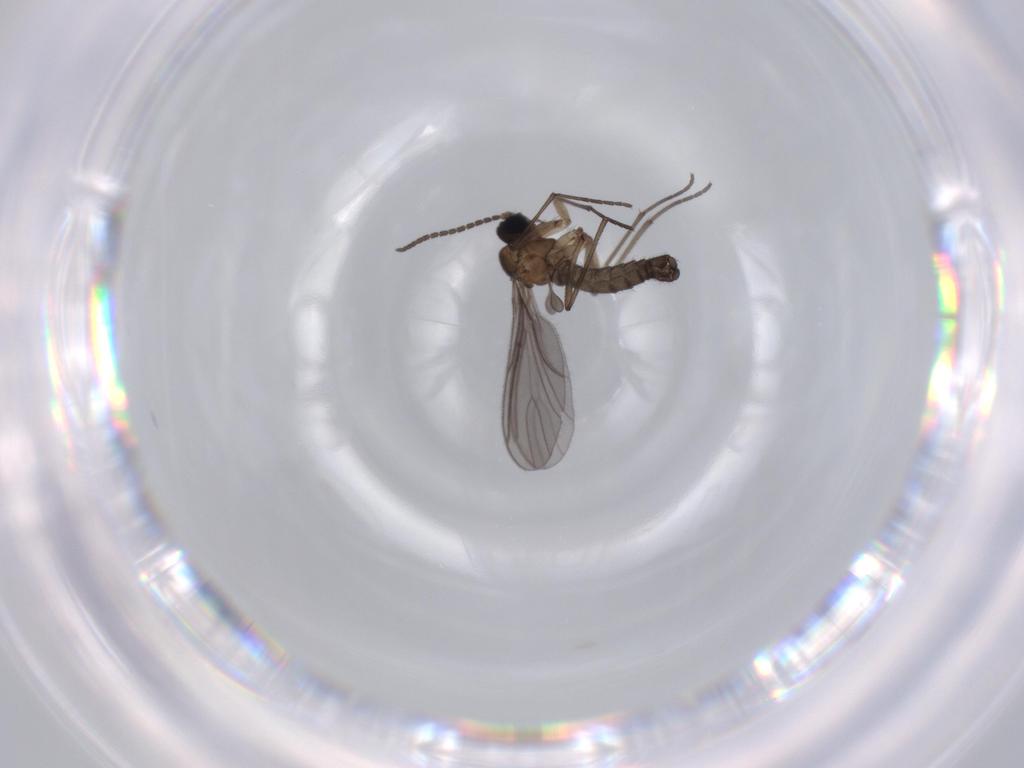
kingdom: Animalia
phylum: Arthropoda
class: Insecta
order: Diptera
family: Sciaridae
